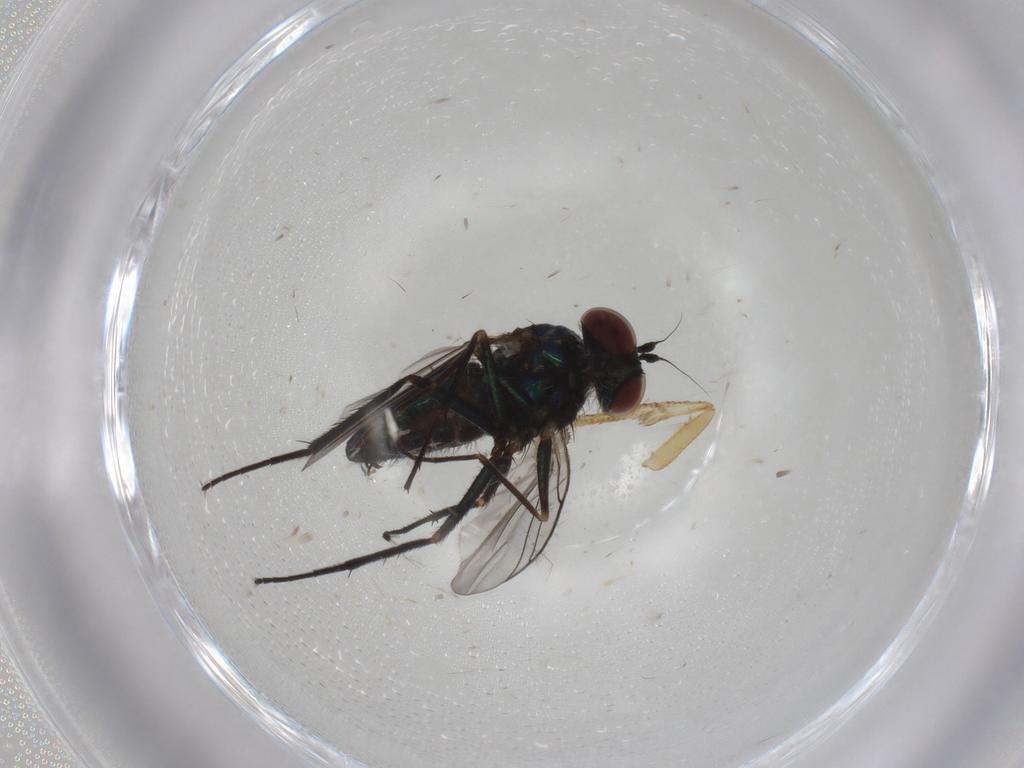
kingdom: Animalia
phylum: Arthropoda
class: Insecta
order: Diptera
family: Dolichopodidae
